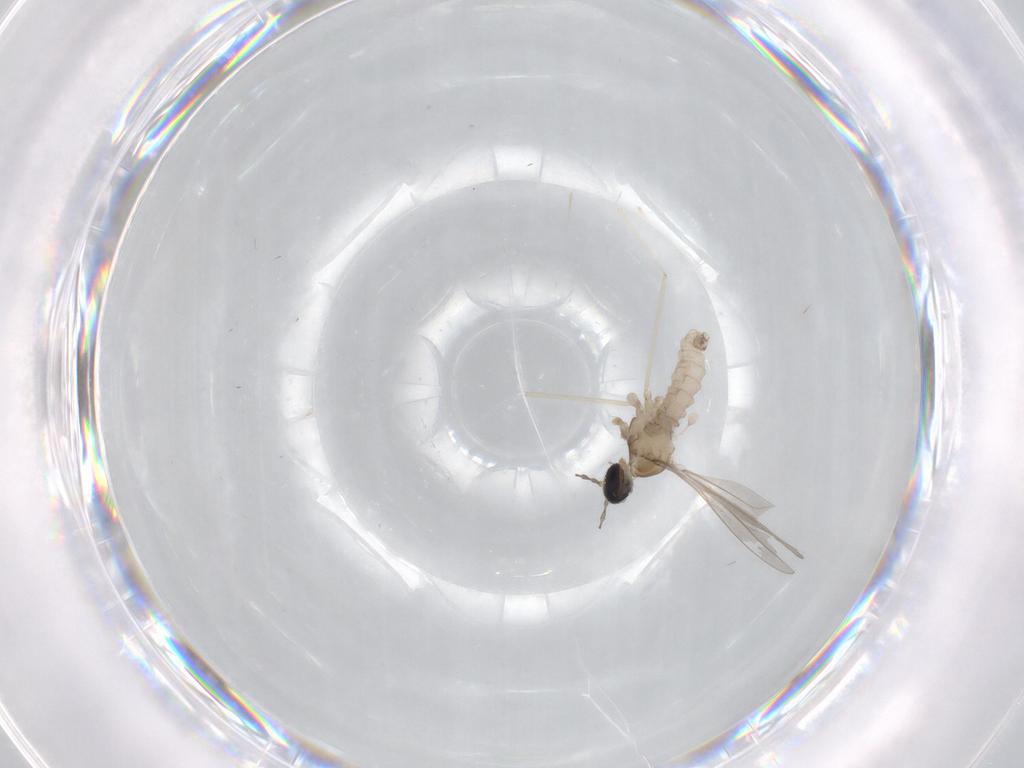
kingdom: Animalia
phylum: Arthropoda
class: Insecta
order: Diptera
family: Cecidomyiidae
